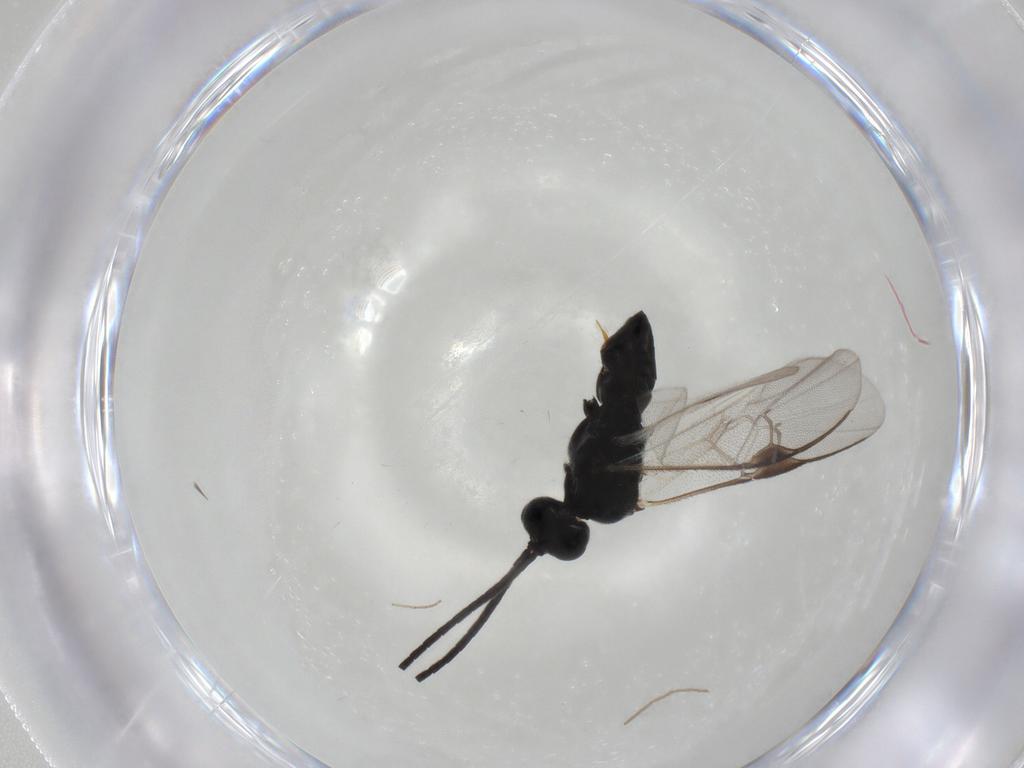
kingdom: Animalia
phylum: Arthropoda
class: Insecta
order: Hymenoptera
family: Braconidae
